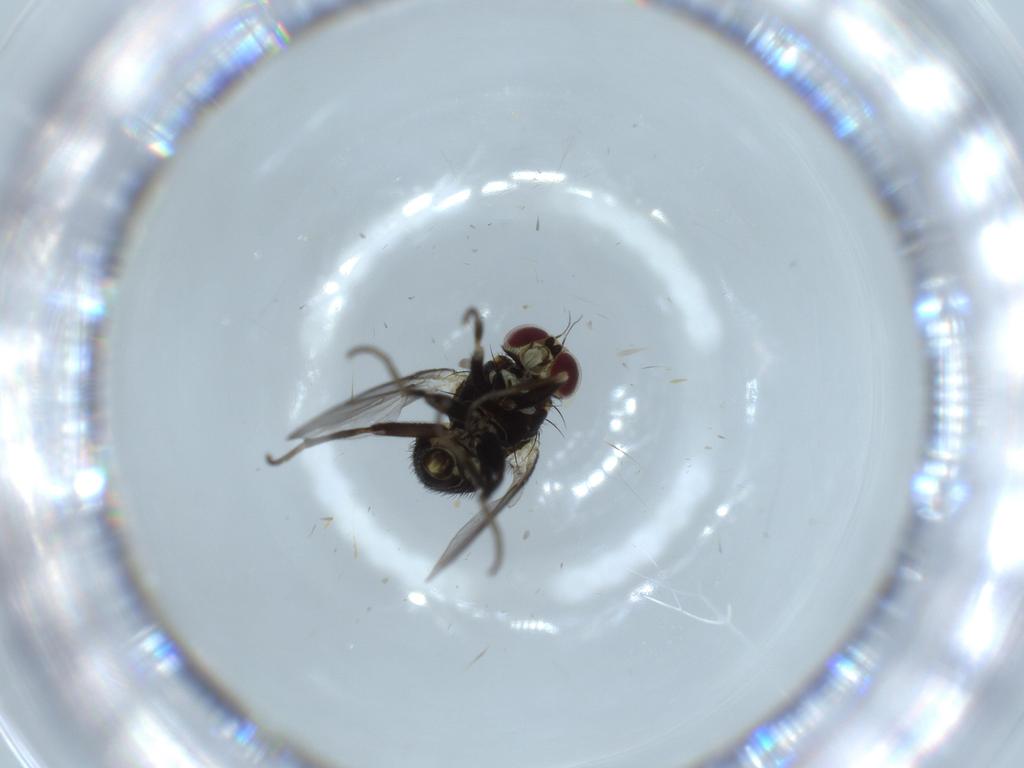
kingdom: Animalia
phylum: Arthropoda
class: Insecta
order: Diptera
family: Agromyzidae
